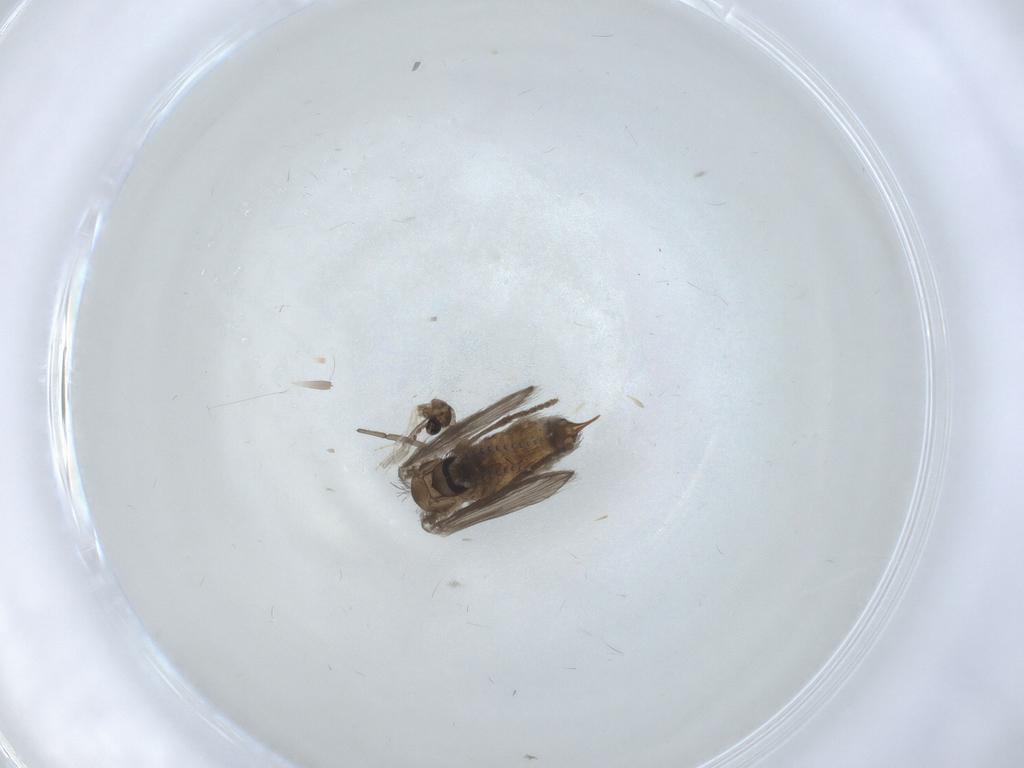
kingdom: Animalia
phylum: Arthropoda
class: Insecta
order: Diptera
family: Psychodidae
